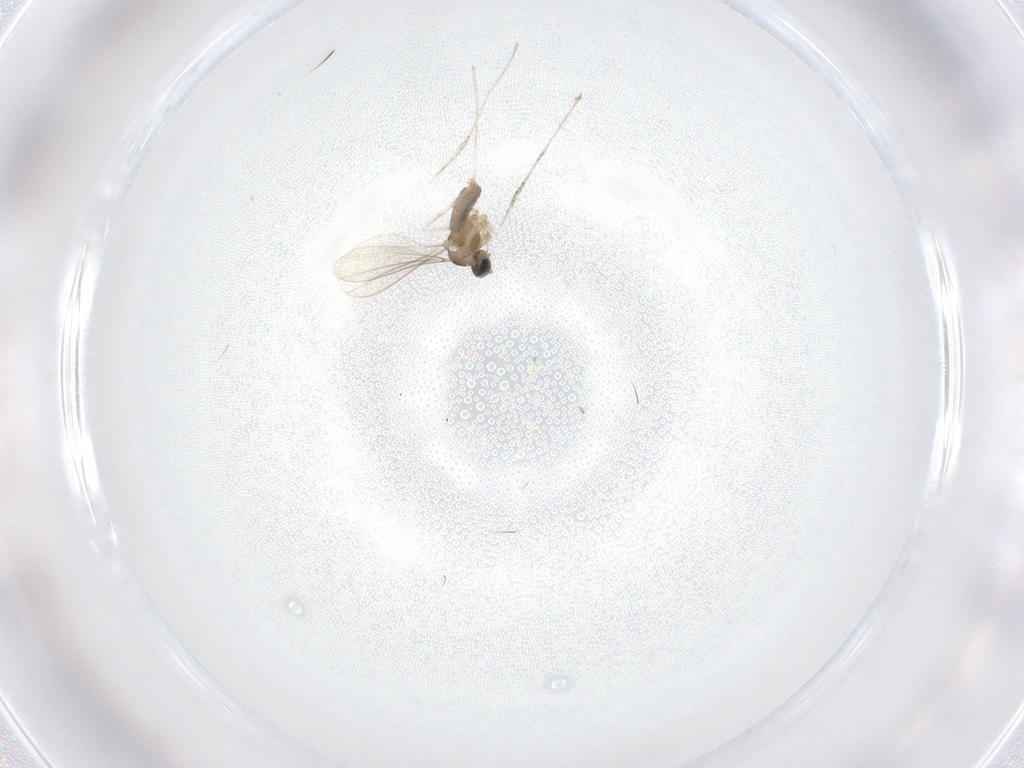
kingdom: Animalia
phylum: Arthropoda
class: Insecta
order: Diptera
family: Cecidomyiidae
